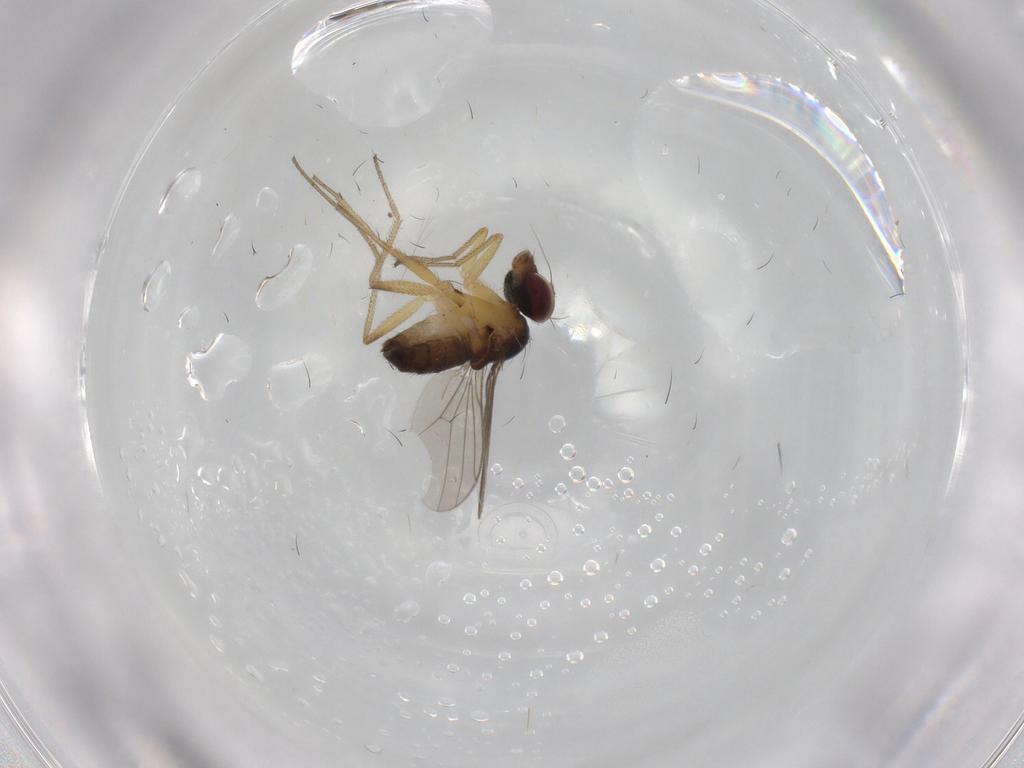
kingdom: Animalia
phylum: Arthropoda
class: Insecta
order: Diptera
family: Dolichopodidae
